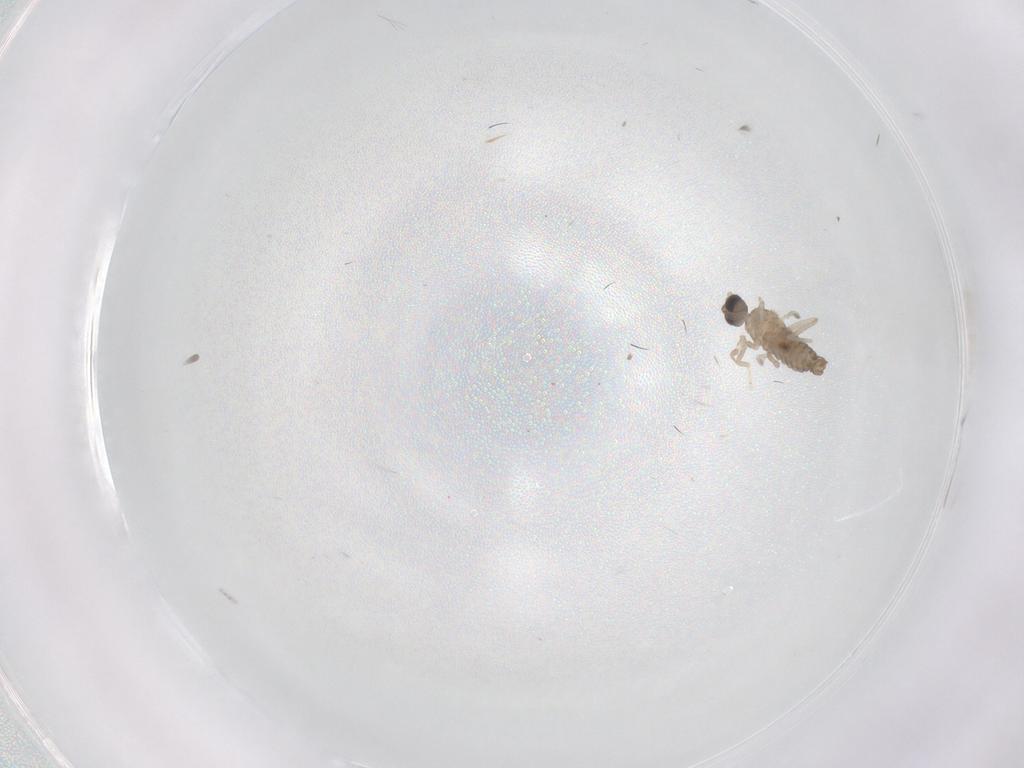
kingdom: Animalia
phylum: Arthropoda
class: Insecta
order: Diptera
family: Cecidomyiidae
